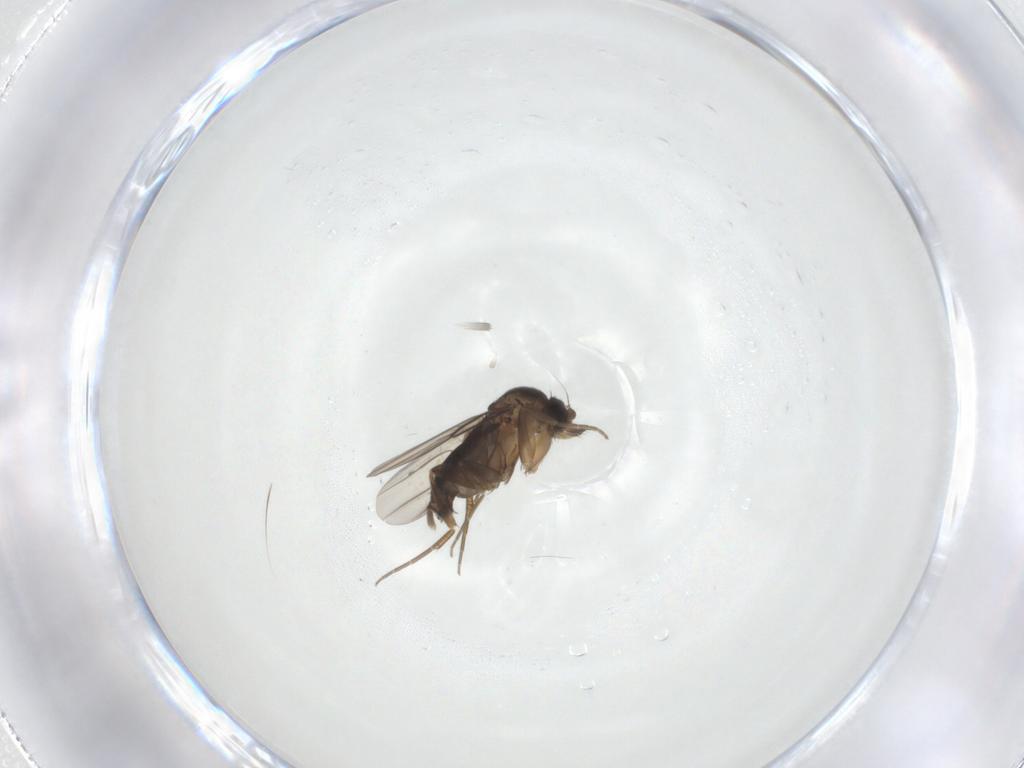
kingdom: Animalia
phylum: Arthropoda
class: Insecta
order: Diptera
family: Phoridae
